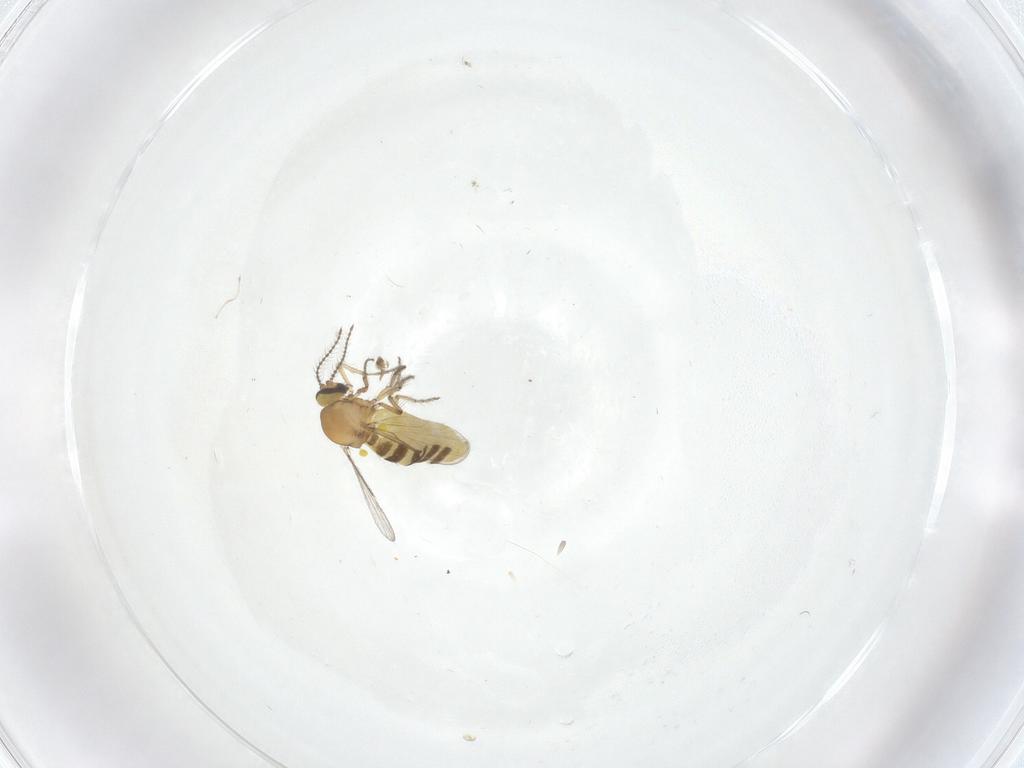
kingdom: Animalia
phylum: Arthropoda
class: Insecta
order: Diptera
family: Ceratopogonidae
